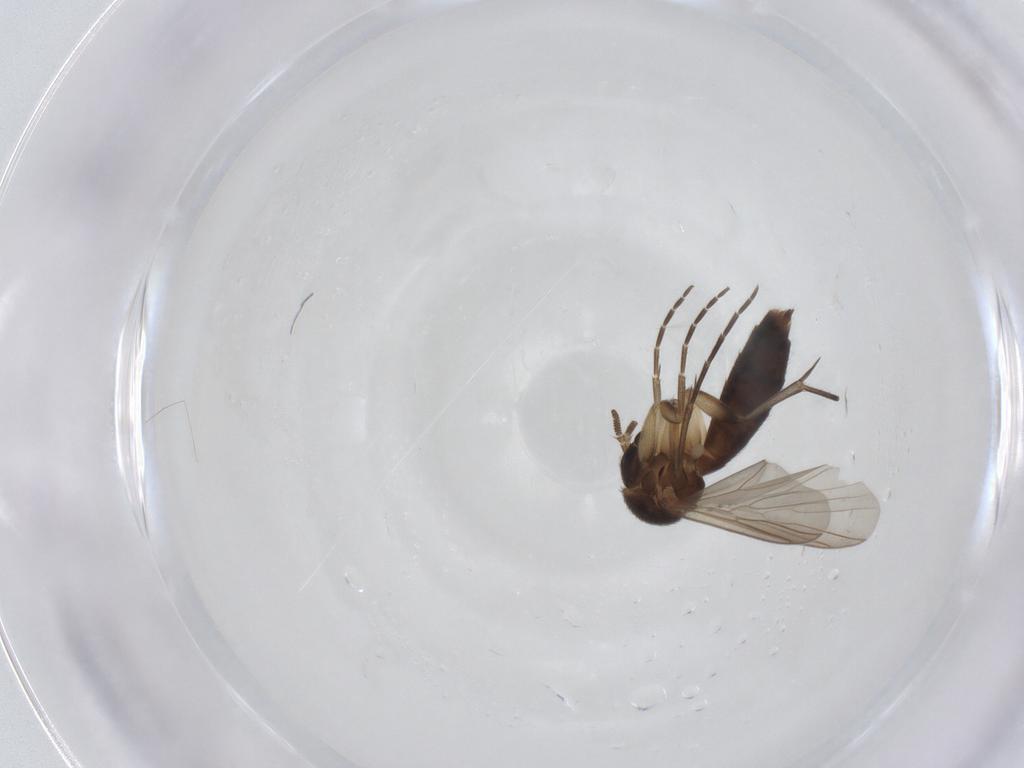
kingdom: Animalia
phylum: Arthropoda
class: Insecta
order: Diptera
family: Mycetophilidae
